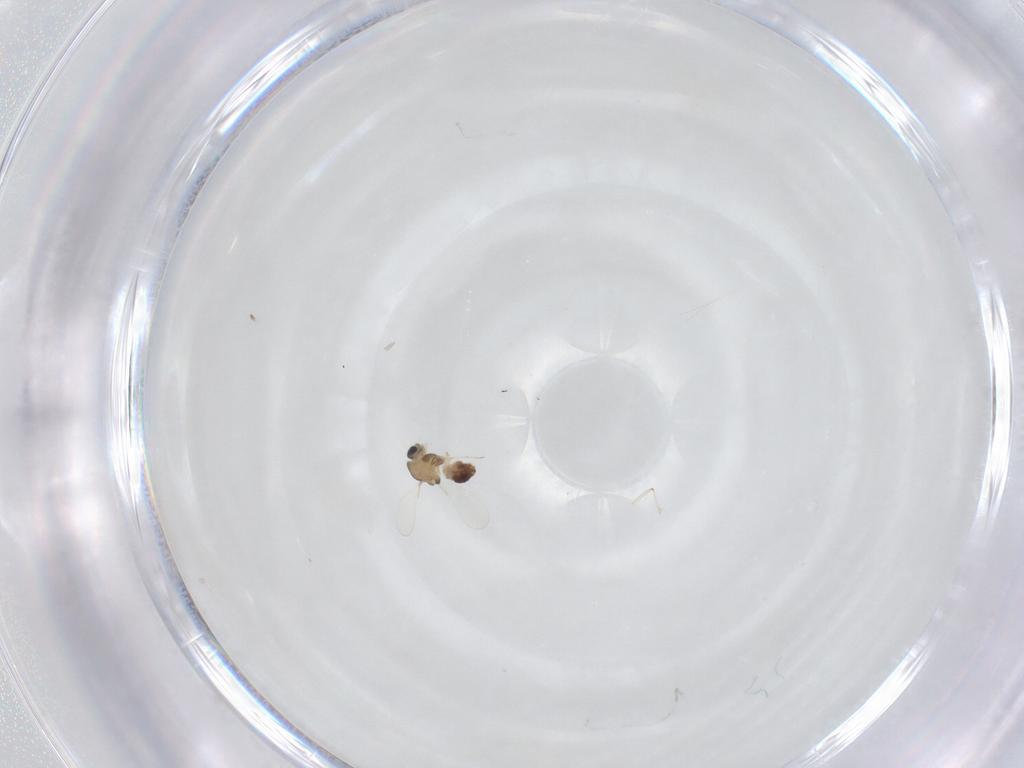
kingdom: Animalia
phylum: Arthropoda
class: Insecta
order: Diptera
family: Chironomidae
